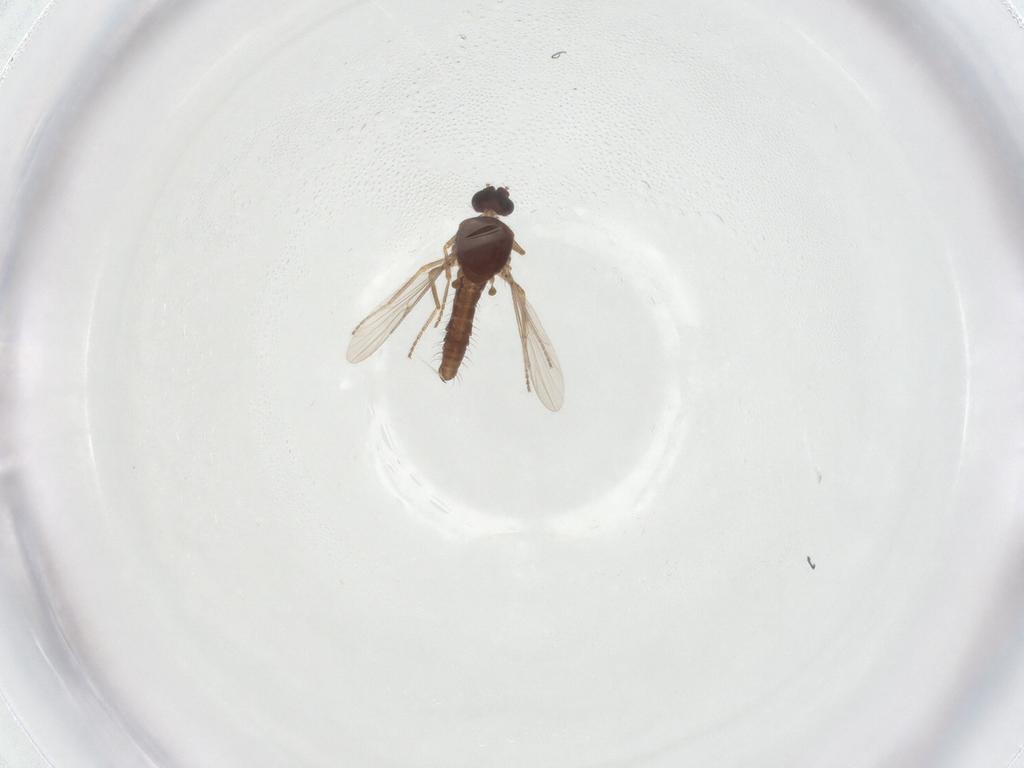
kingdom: Animalia
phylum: Arthropoda
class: Insecta
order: Diptera
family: Ceratopogonidae
